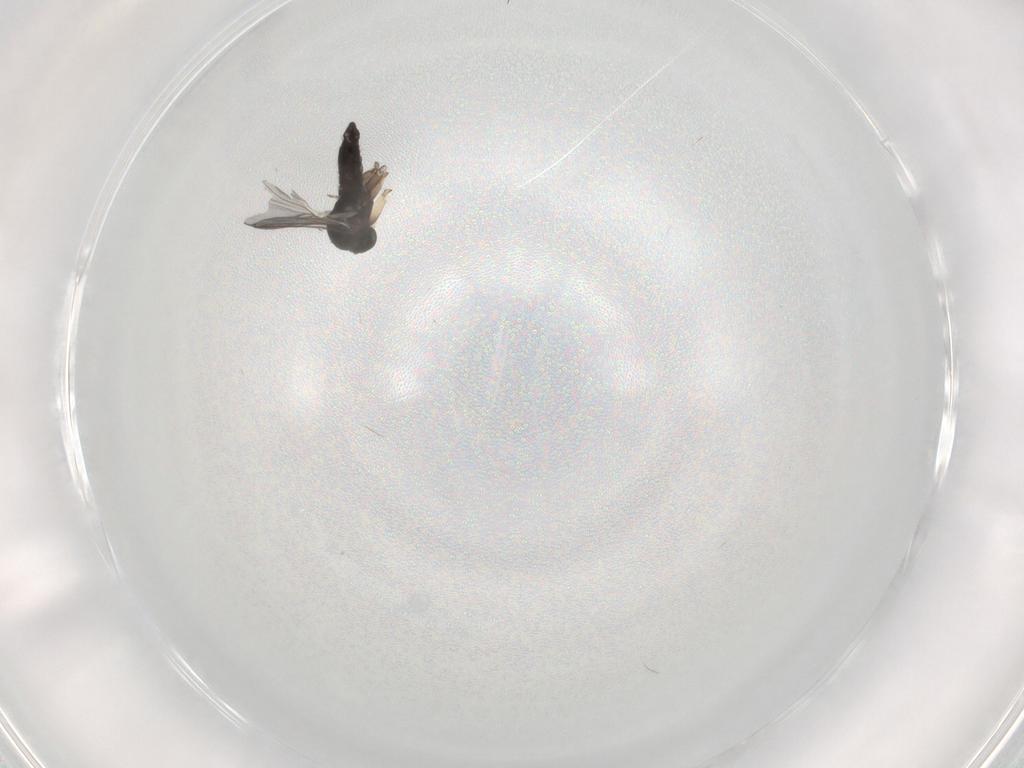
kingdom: Animalia
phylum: Arthropoda
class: Insecta
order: Diptera
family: Sciaridae
